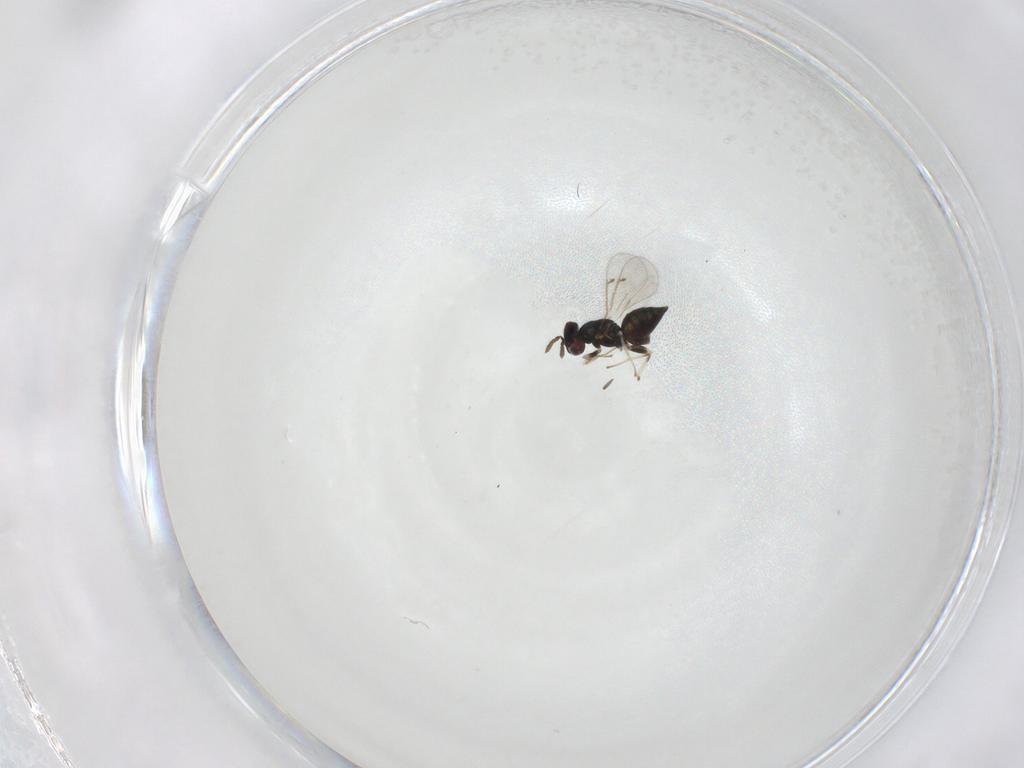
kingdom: Animalia
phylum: Arthropoda
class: Insecta
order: Hymenoptera
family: Eulophidae
